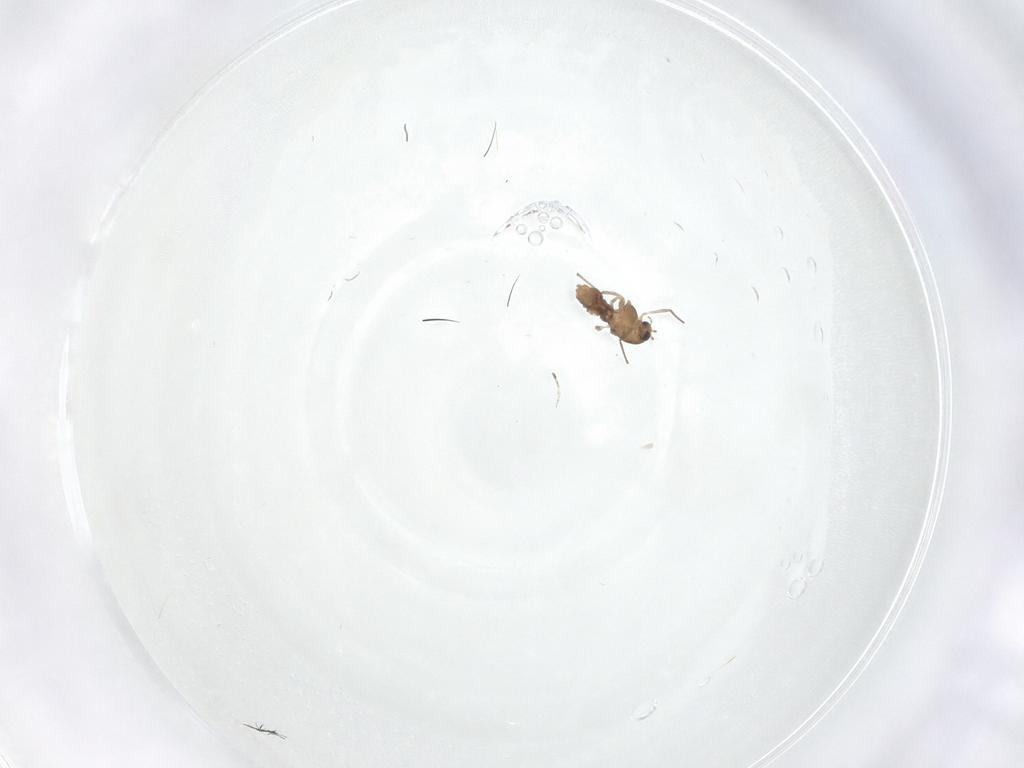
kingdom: Animalia
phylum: Arthropoda
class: Insecta
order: Diptera
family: Chironomidae
